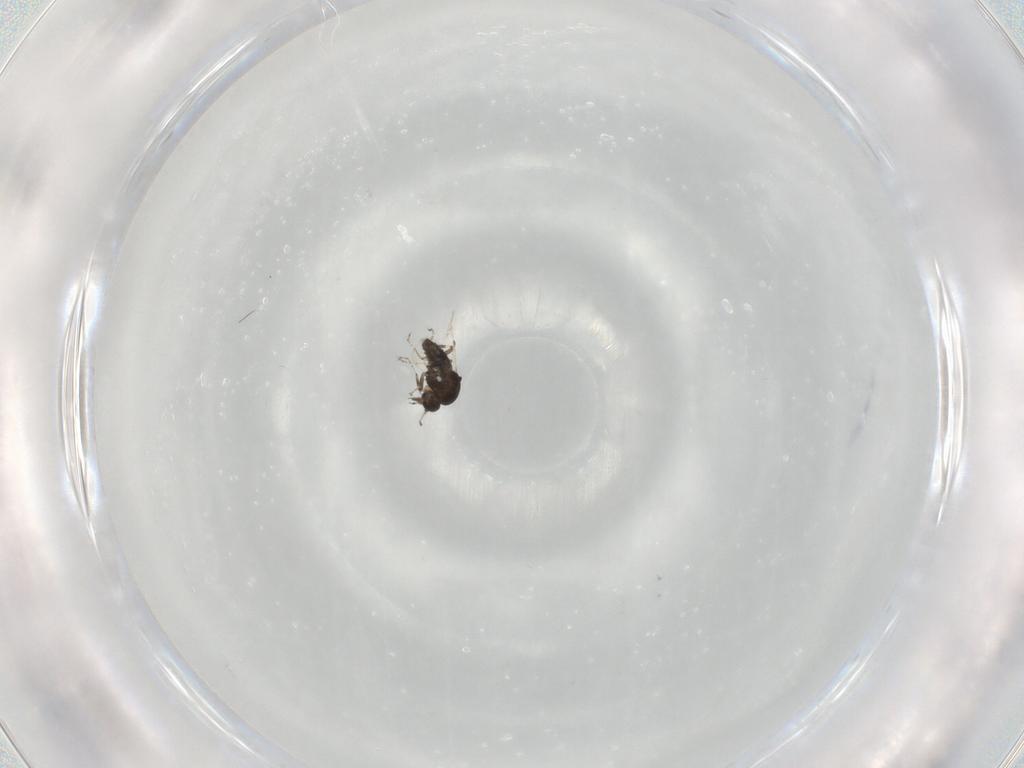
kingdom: Animalia
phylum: Arthropoda
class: Insecta
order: Diptera
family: Ceratopogonidae
